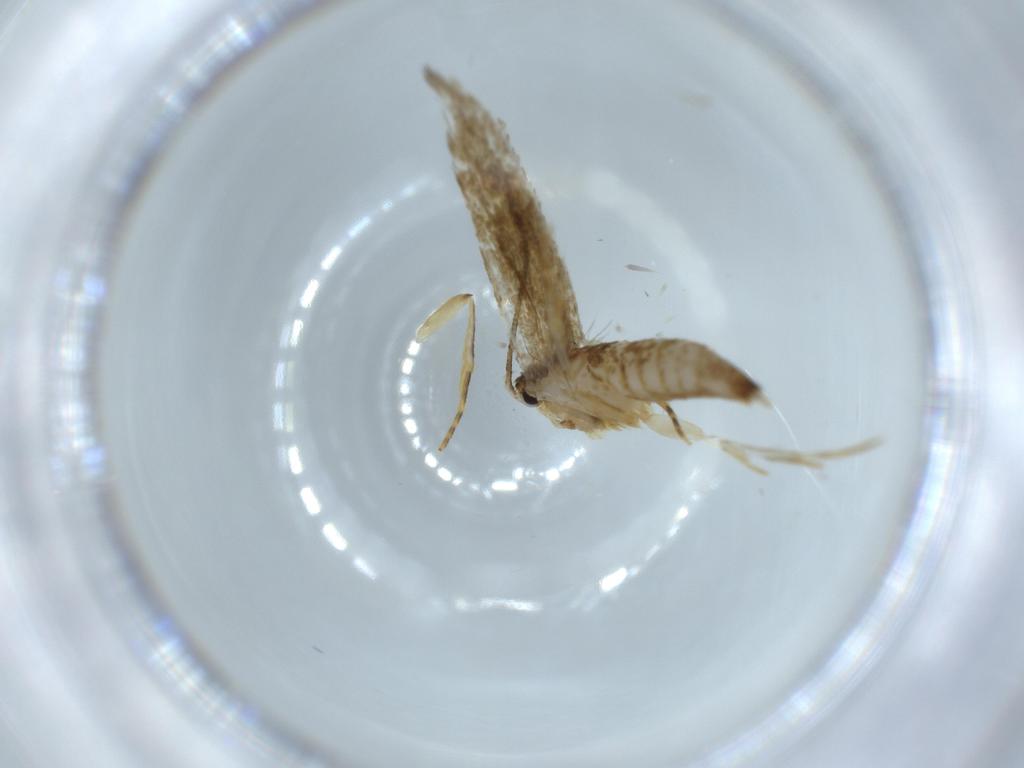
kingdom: Animalia
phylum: Arthropoda
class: Insecta
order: Lepidoptera
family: Tineidae
